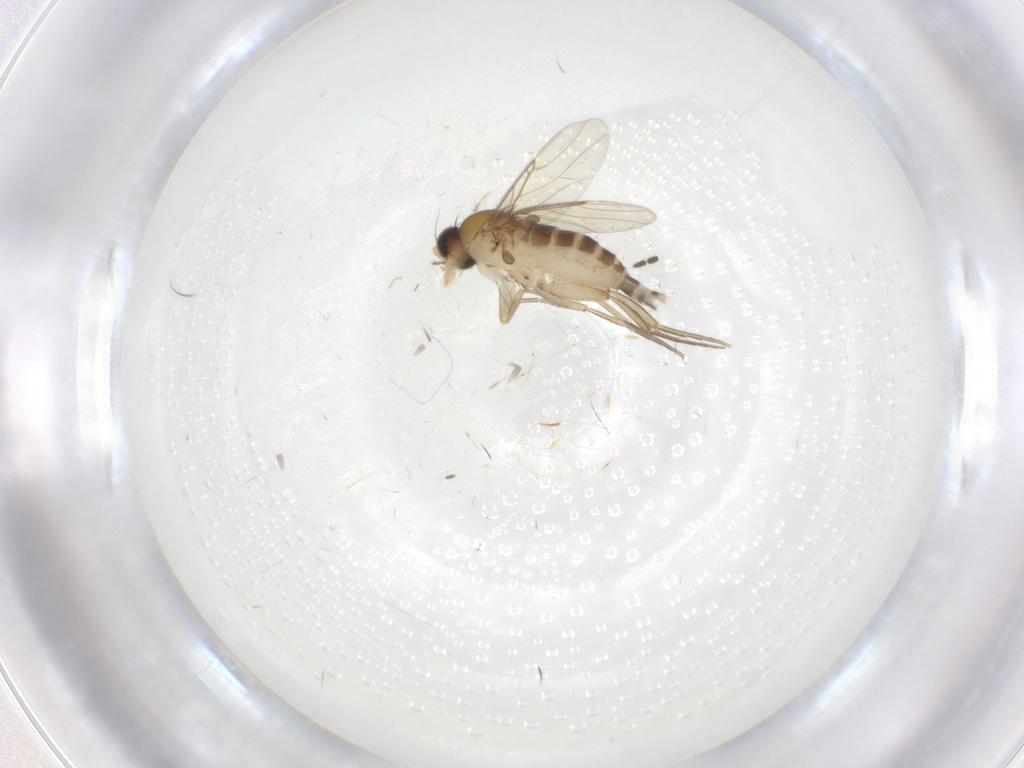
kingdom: Animalia
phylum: Arthropoda
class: Insecta
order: Diptera
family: Phoridae
